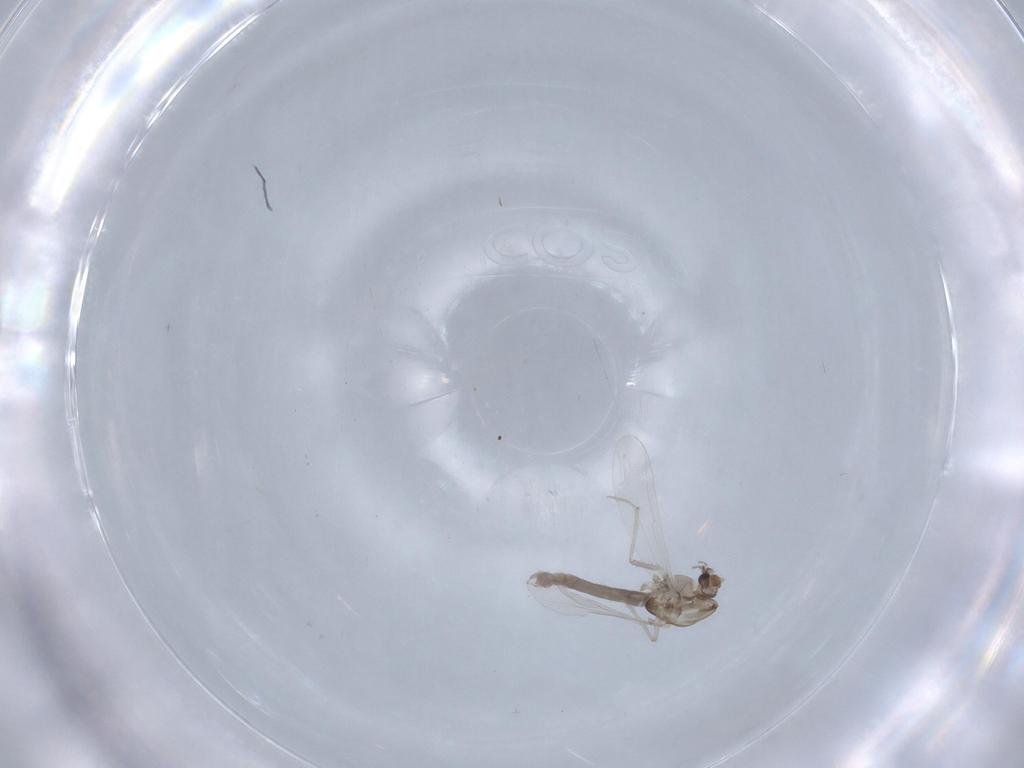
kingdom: Animalia
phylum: Arthropoda
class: Insecta
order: Diptera
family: Chironomidae
